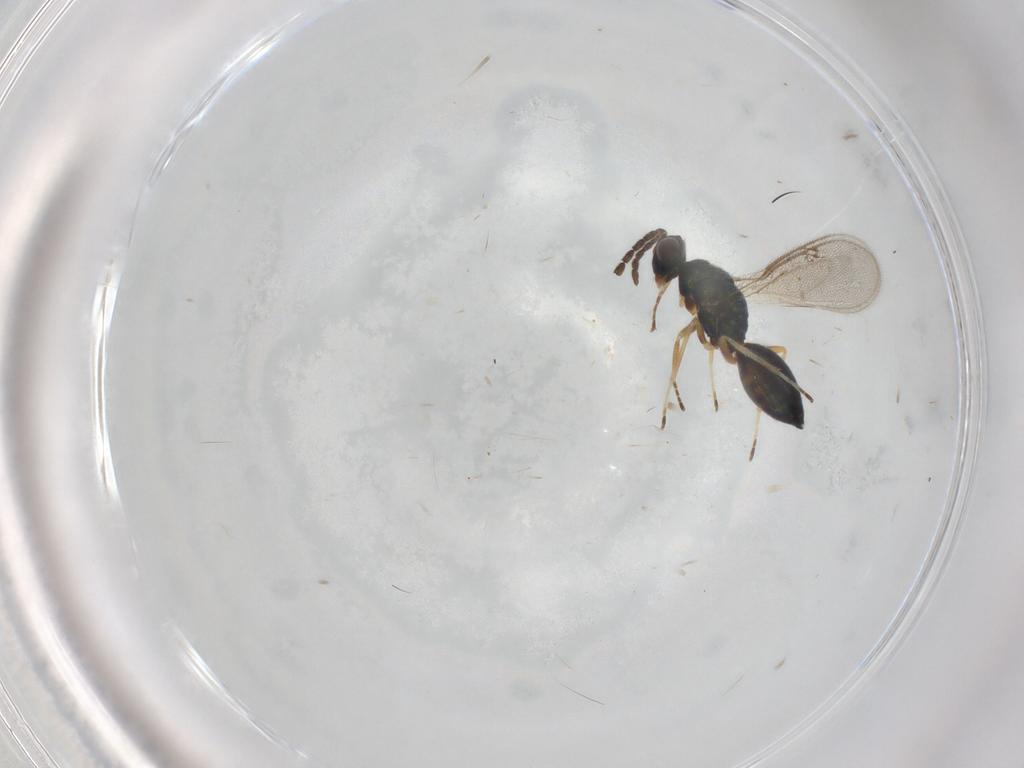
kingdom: Animalia
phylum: Arthropoda
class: Insecta
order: Hymenoptera
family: Eulophidae
